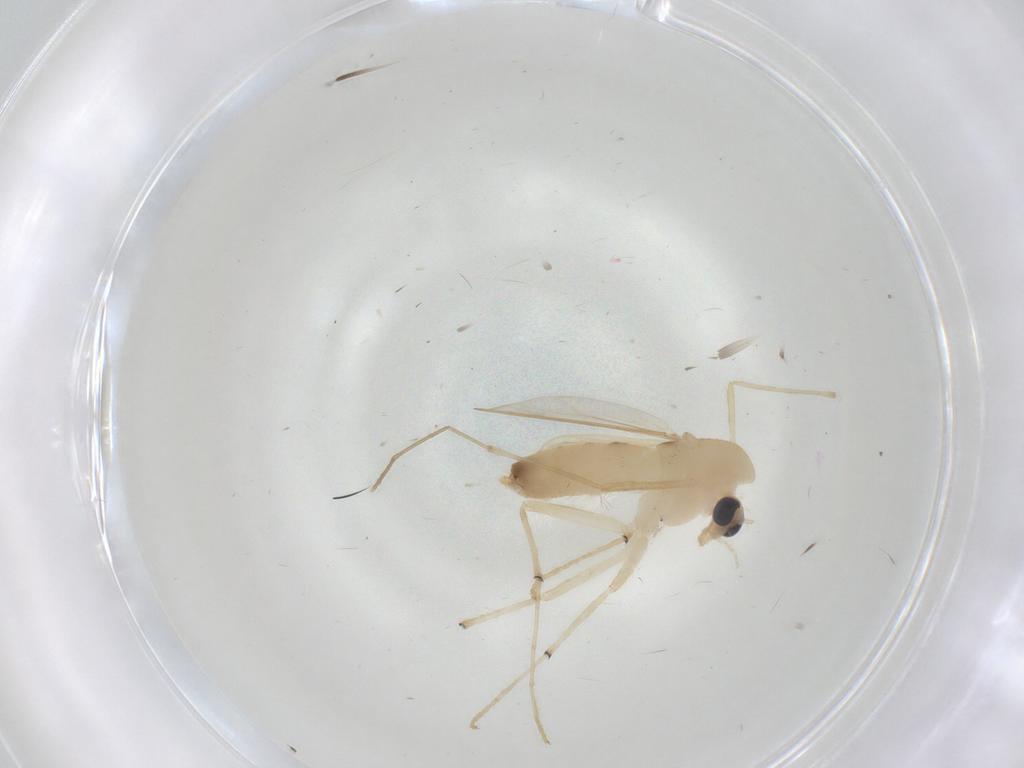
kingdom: Animalia
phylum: Arthropoda
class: Insecta
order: Diptera
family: Chironomidae
